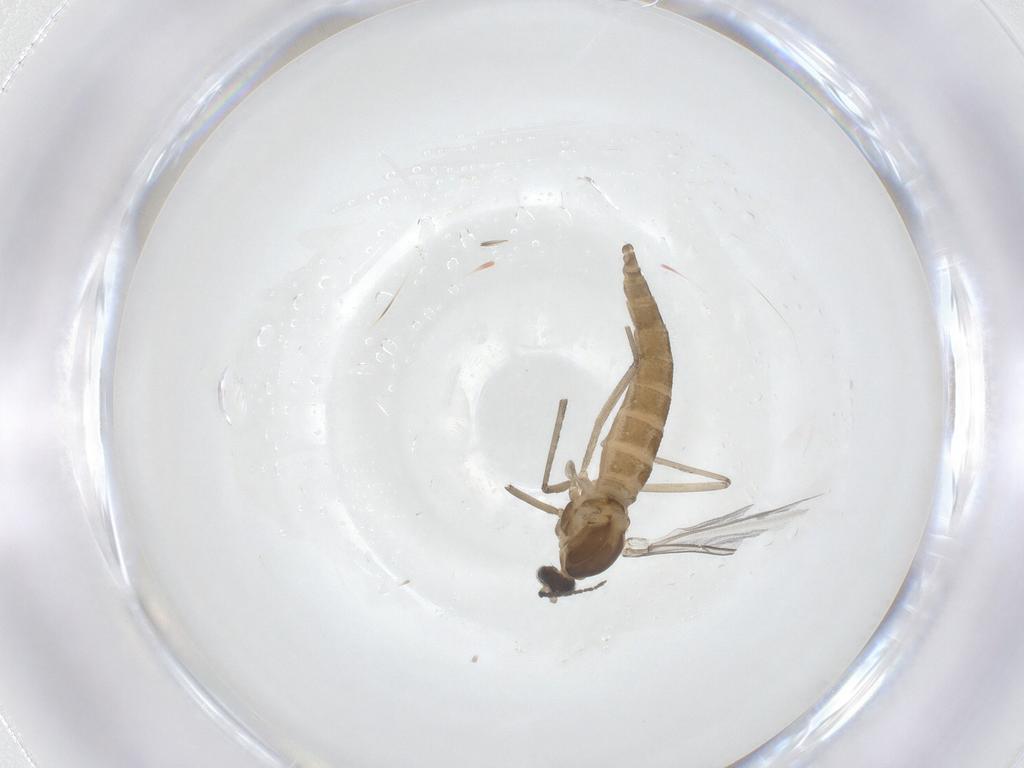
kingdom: Animalia
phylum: Arthropoda
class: Insecta
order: Diptera
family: Cecidomyiidae
